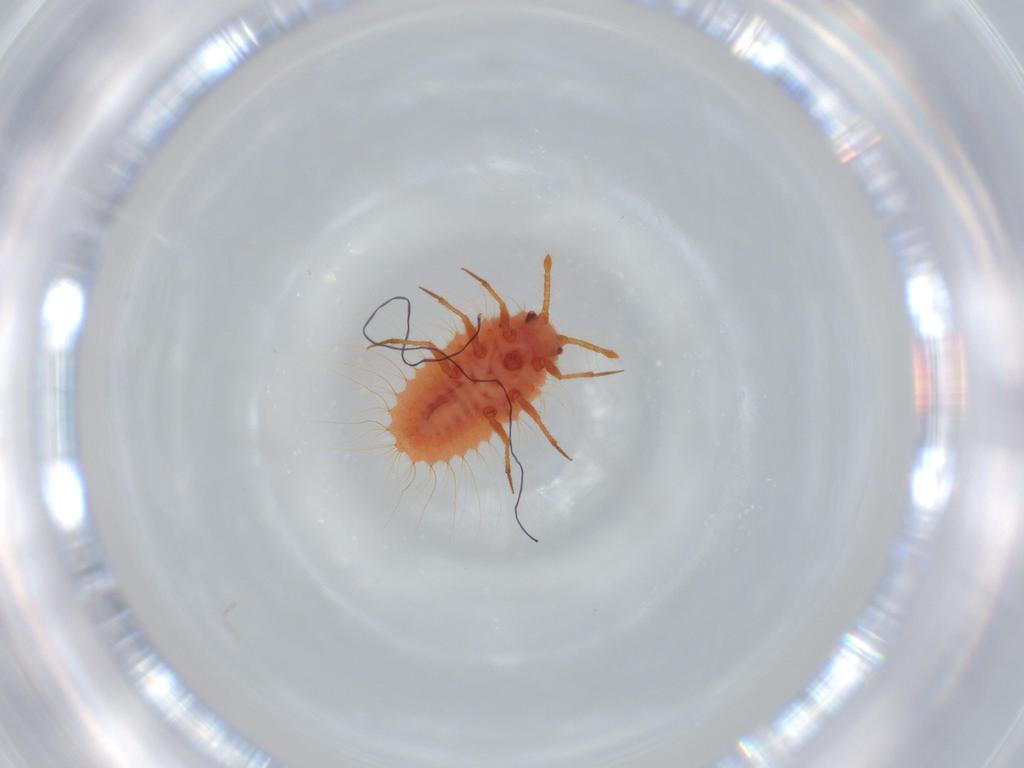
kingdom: Animalia
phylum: Arthropoda
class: Insecta
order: Hemiptera
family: Coccoidea_incertae_sedis
